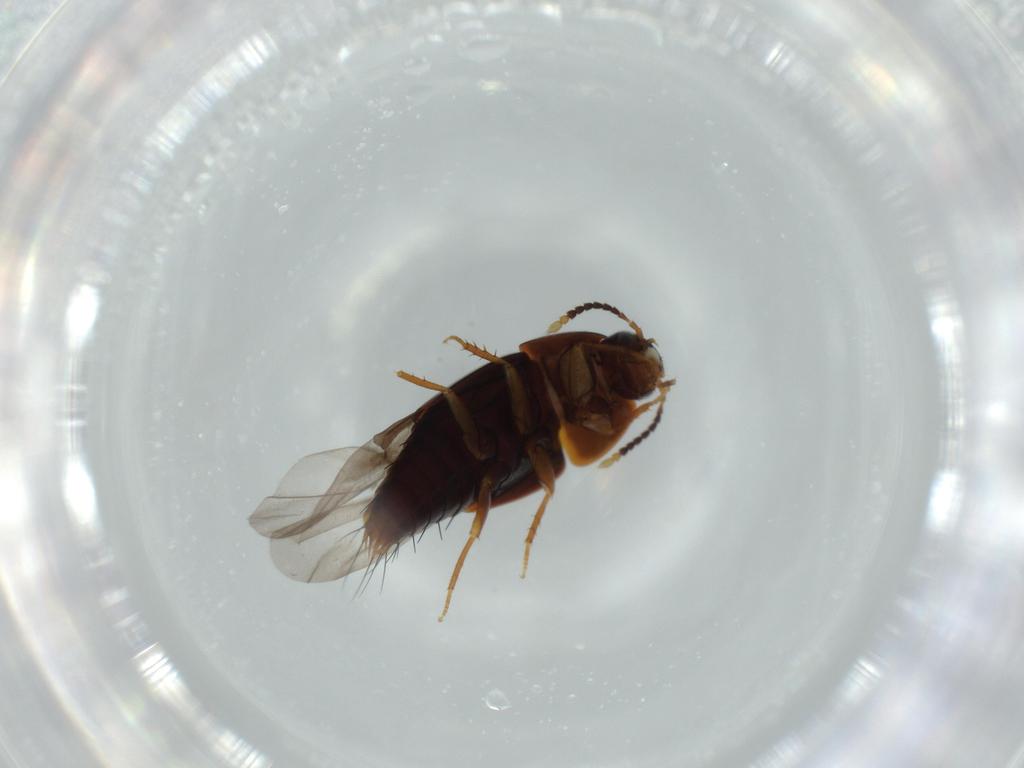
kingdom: Animalia
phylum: Arthropoda
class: Insecta
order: Coleoptera
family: Staphylinidae
